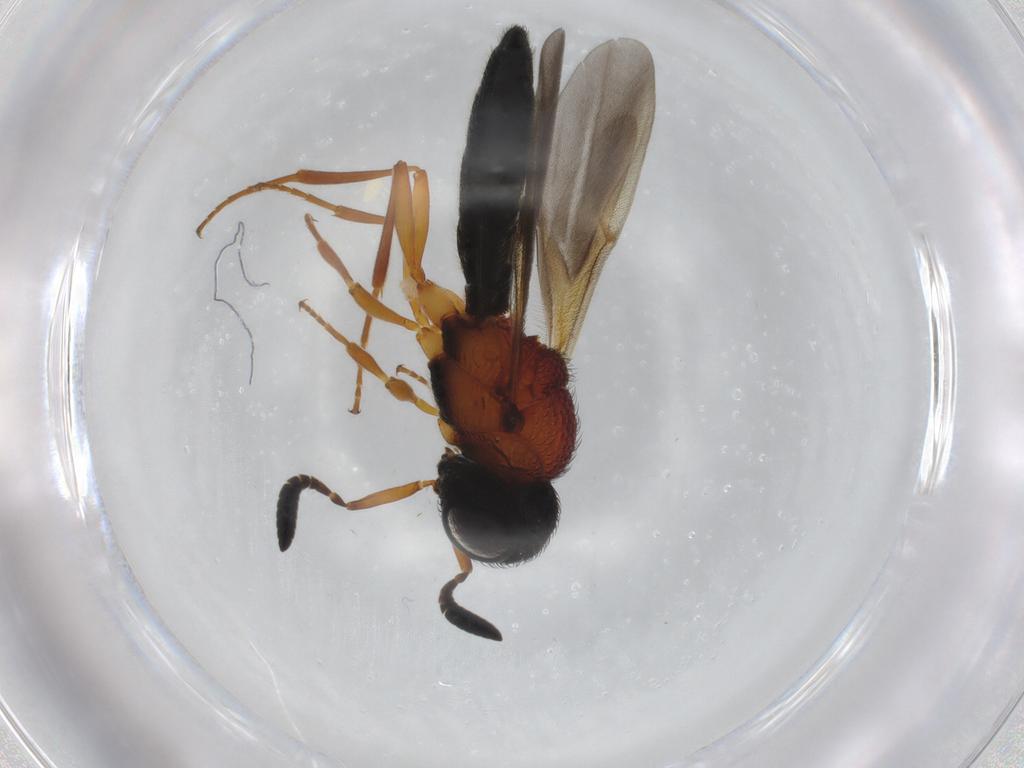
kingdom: Animalia
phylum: Arthropoda
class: Insecta
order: Hymenoptera
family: Scelionidae
